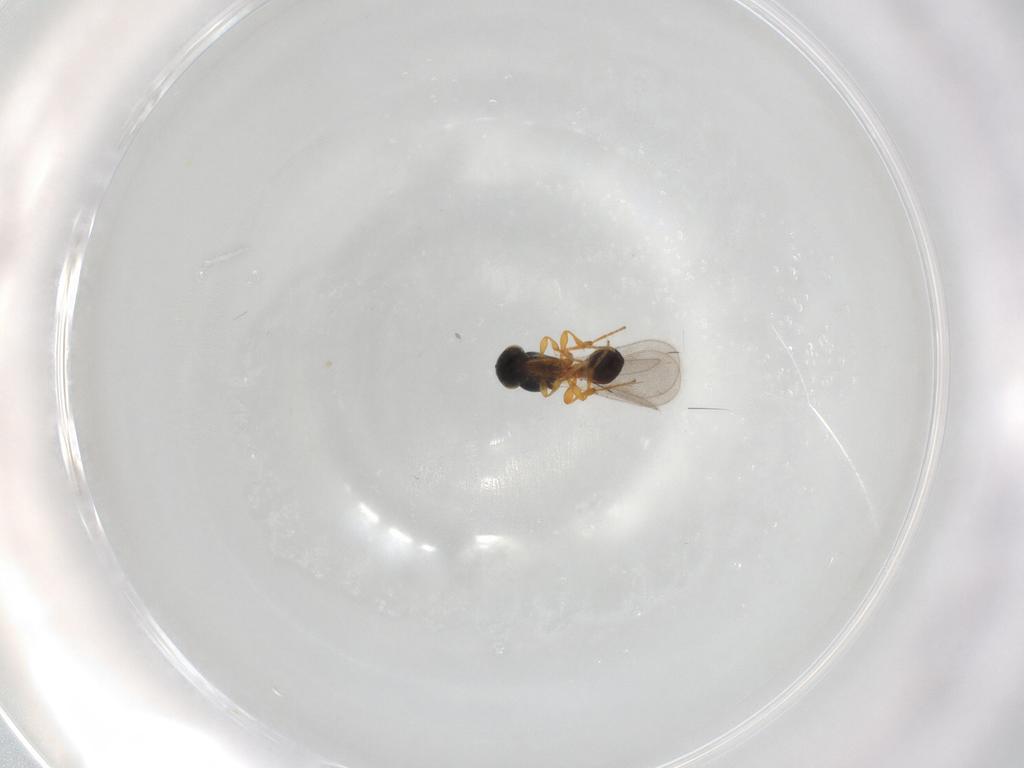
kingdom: Animalia
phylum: Arthropoda
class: Insecta
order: Hymenoptera
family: Platygastridae
